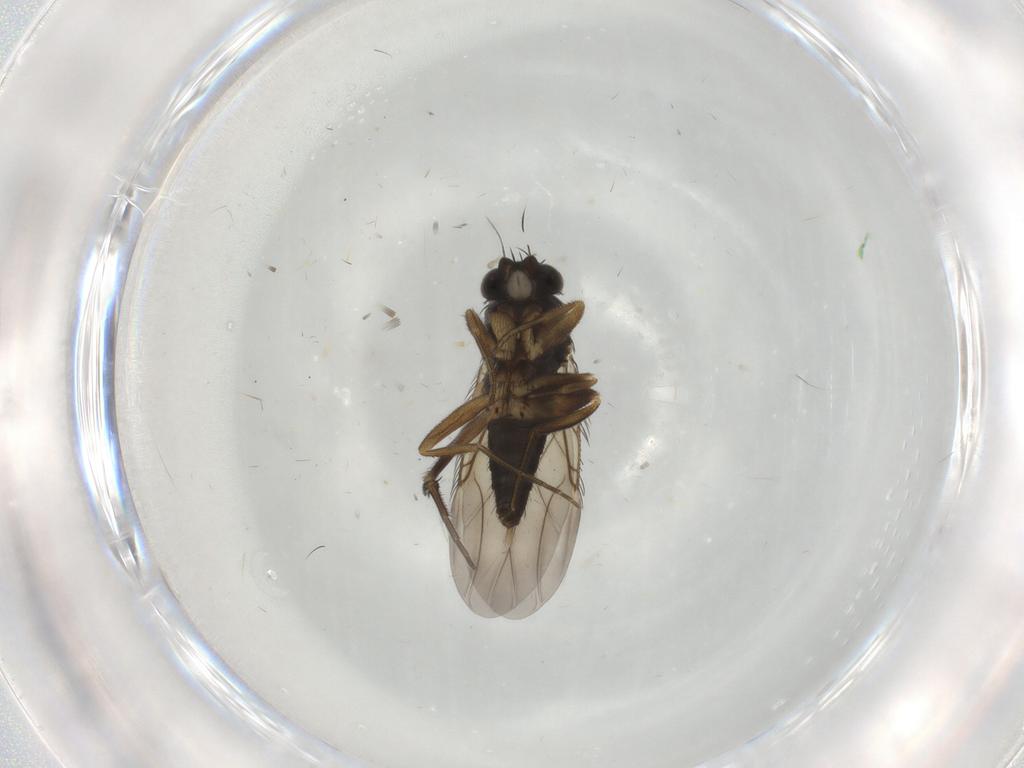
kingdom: Animalia
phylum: Arthropoda
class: Insecta
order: Diptera
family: Phoridae
